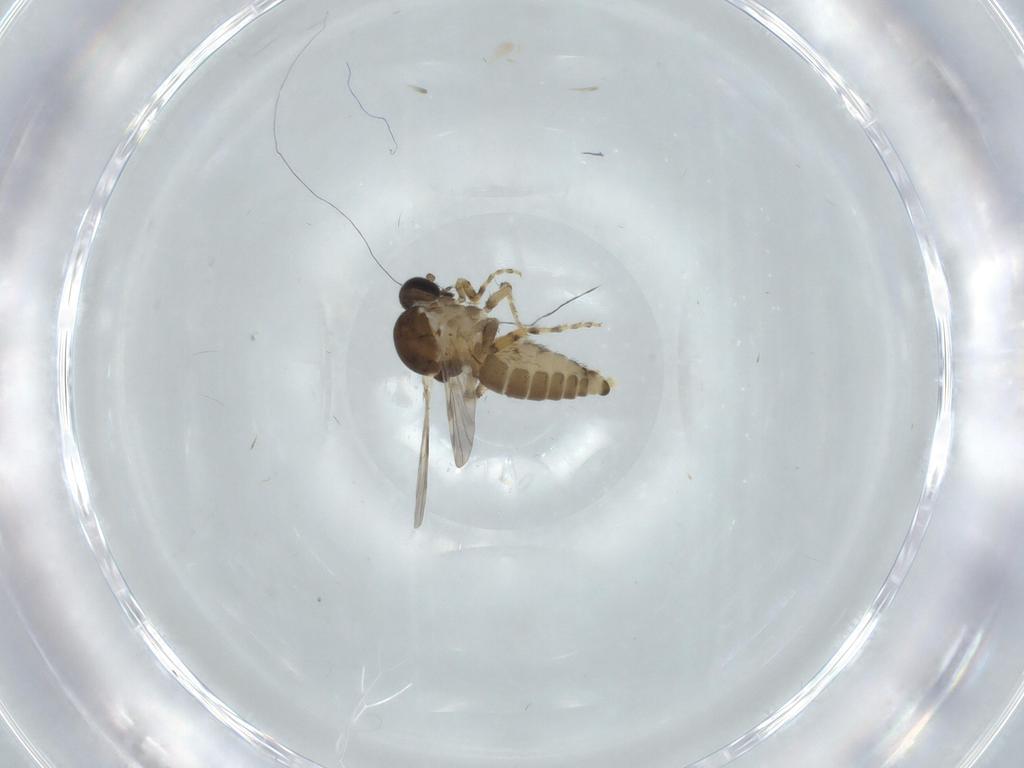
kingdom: Animalia
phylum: Arthropoda
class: Insecta
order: Diptera
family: Ceratopogonidae
